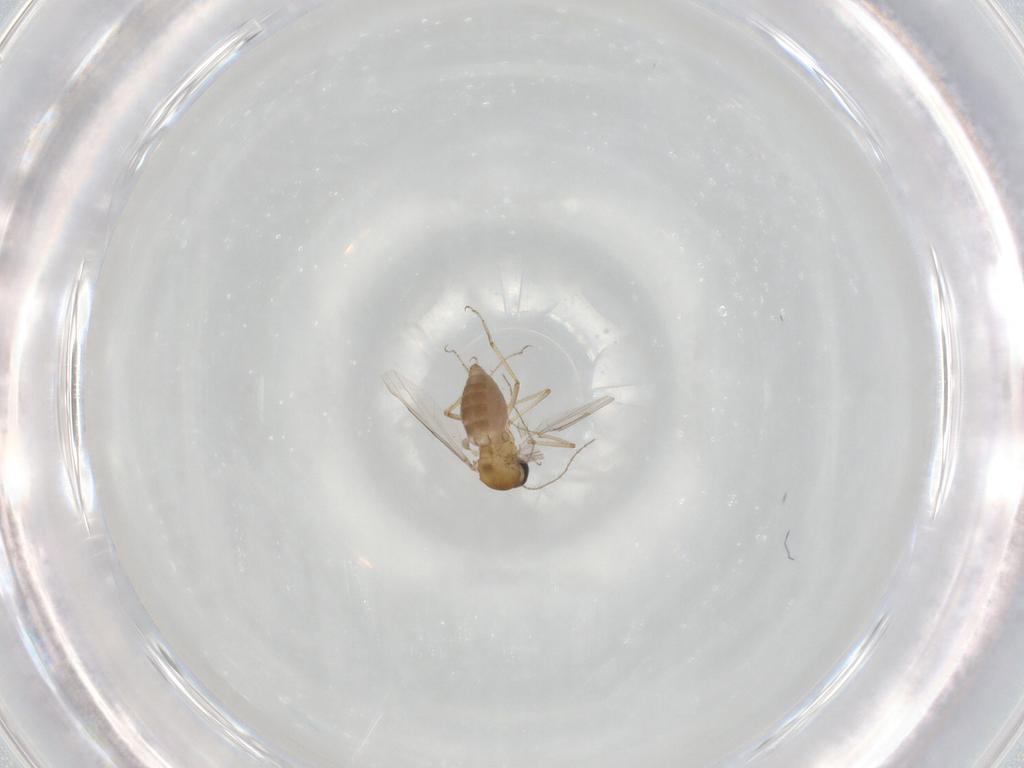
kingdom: Animalia
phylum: Arthropoda
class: Insecta
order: Diptera
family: Ceratopogonidae
